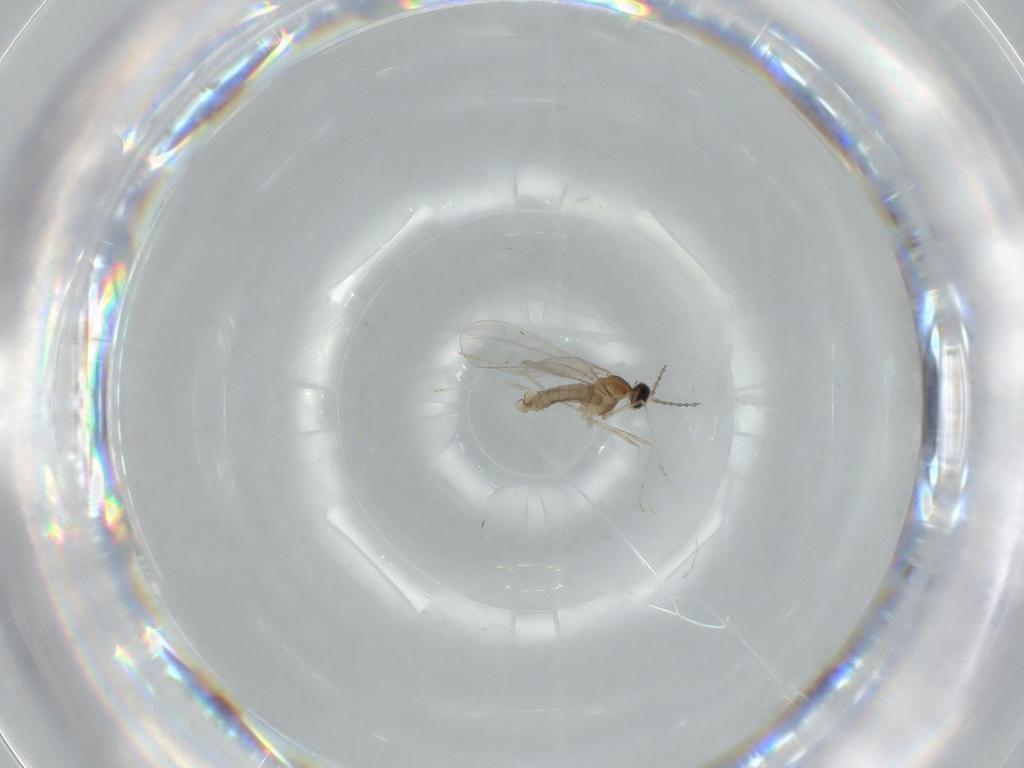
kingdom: Animalia
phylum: Arthropoda
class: Insecta
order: Diptera
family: Cecidomyiidae
